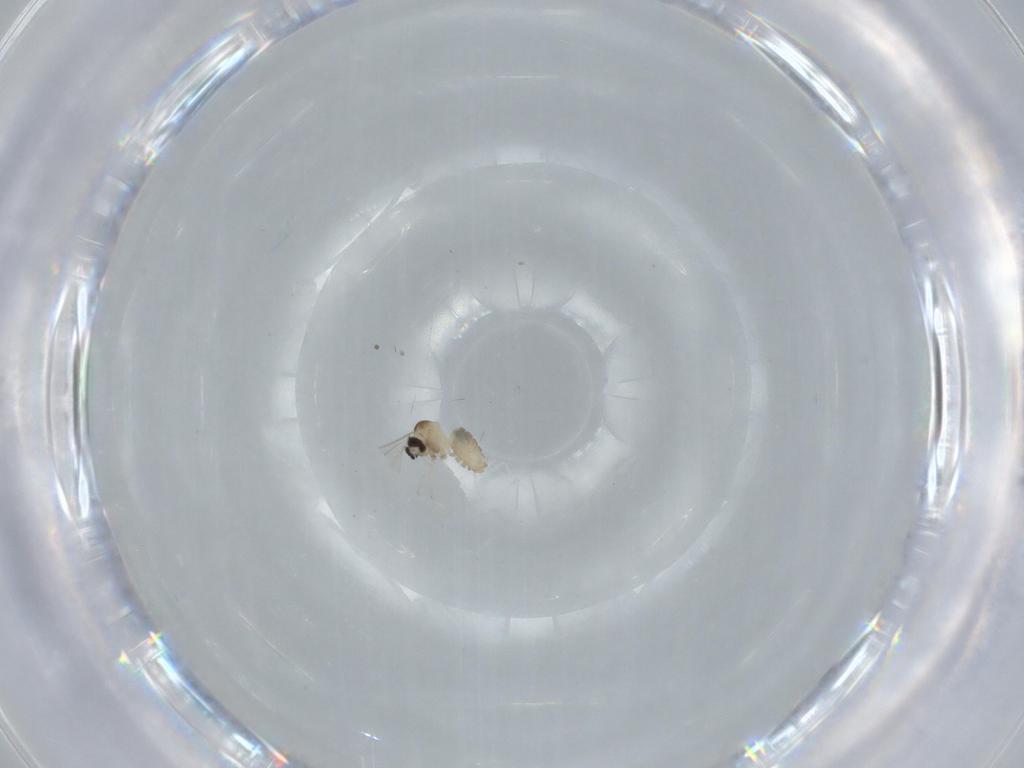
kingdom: Animalia
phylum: Arthropoda
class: Insecta
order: Diptera
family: Cecidomyiidae
